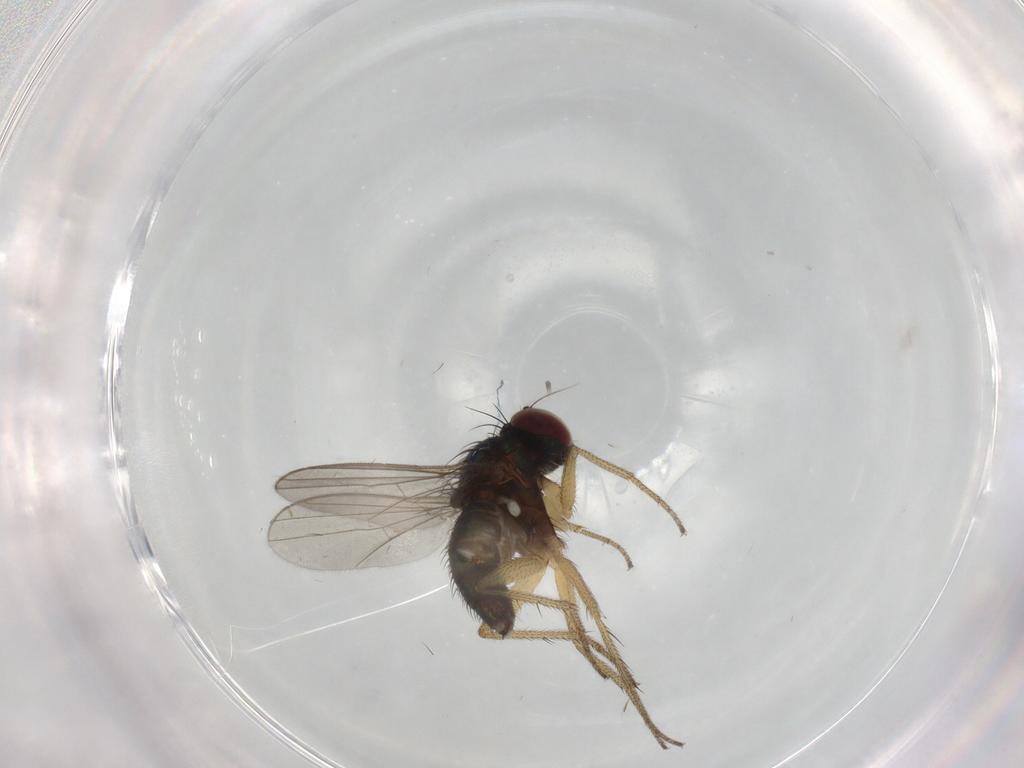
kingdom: Animalia
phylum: Arthropoda
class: Insecta
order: Diptera
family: Dolichopodidae
